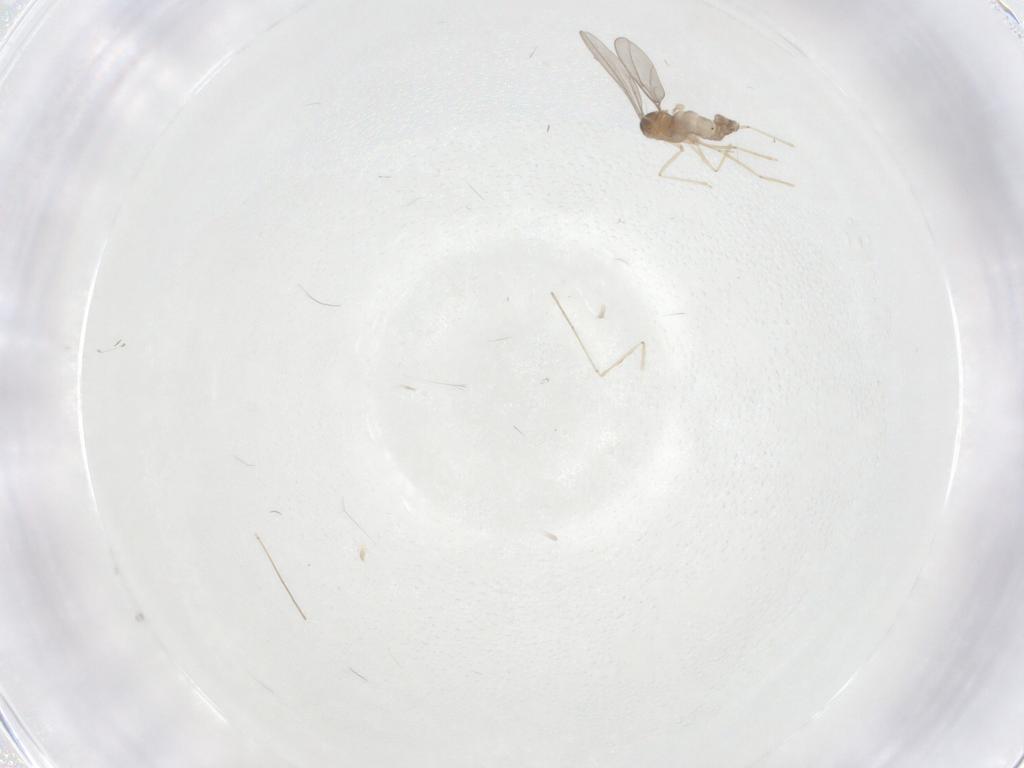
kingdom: Animalia
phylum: Arthropoda
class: Insecta
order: Diptera
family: Cecidomyiidae
